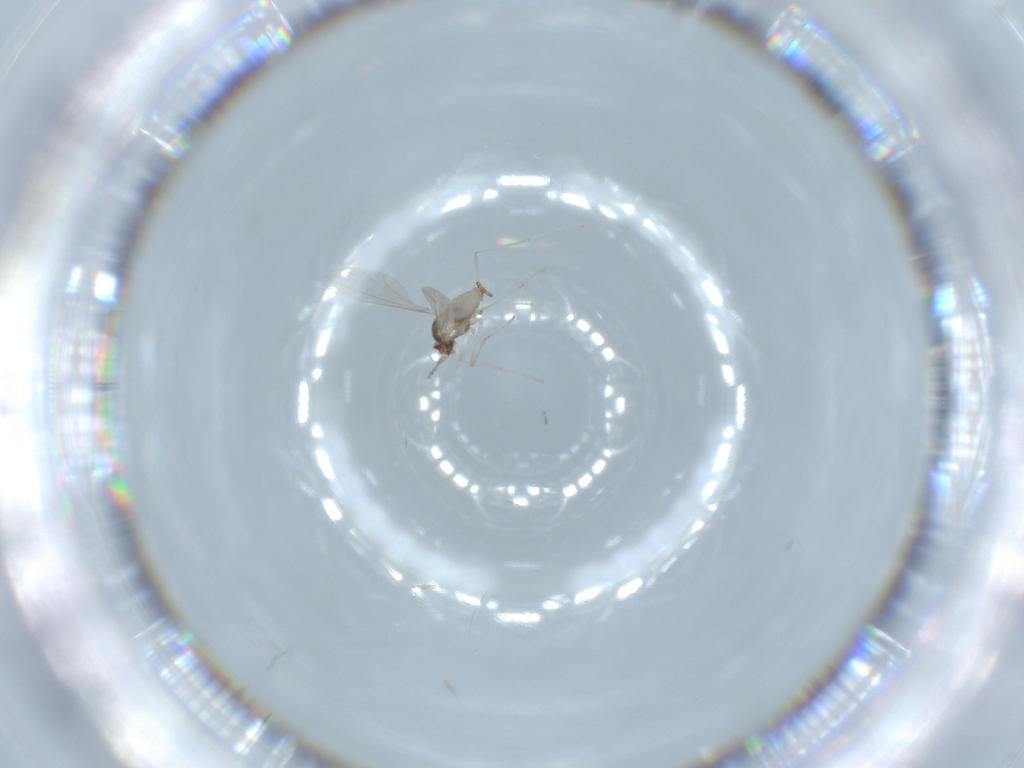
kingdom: Animalia
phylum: Arthropoda
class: Insecta
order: Diptera
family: Cecidomyiidae
